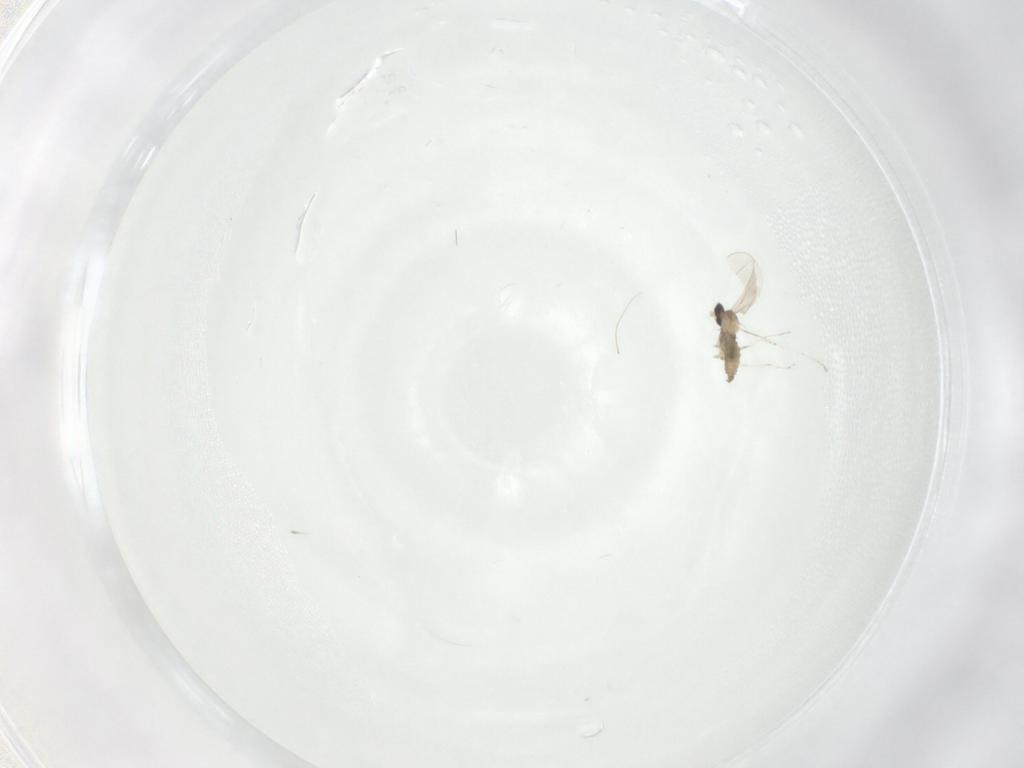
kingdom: Animalia
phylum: Arthropoda
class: Insecta
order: Diptera
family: Ceratopogonidae
